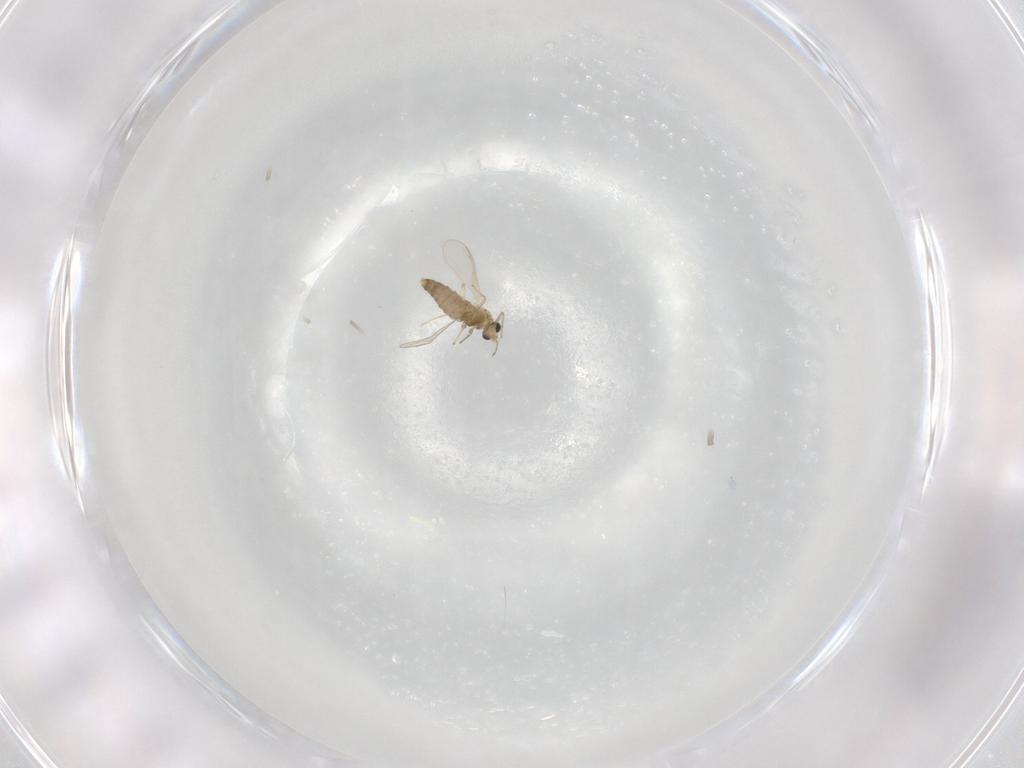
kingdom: Animalia
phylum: Arthropoda
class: Insecta
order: Diptera
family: Chironomidae
